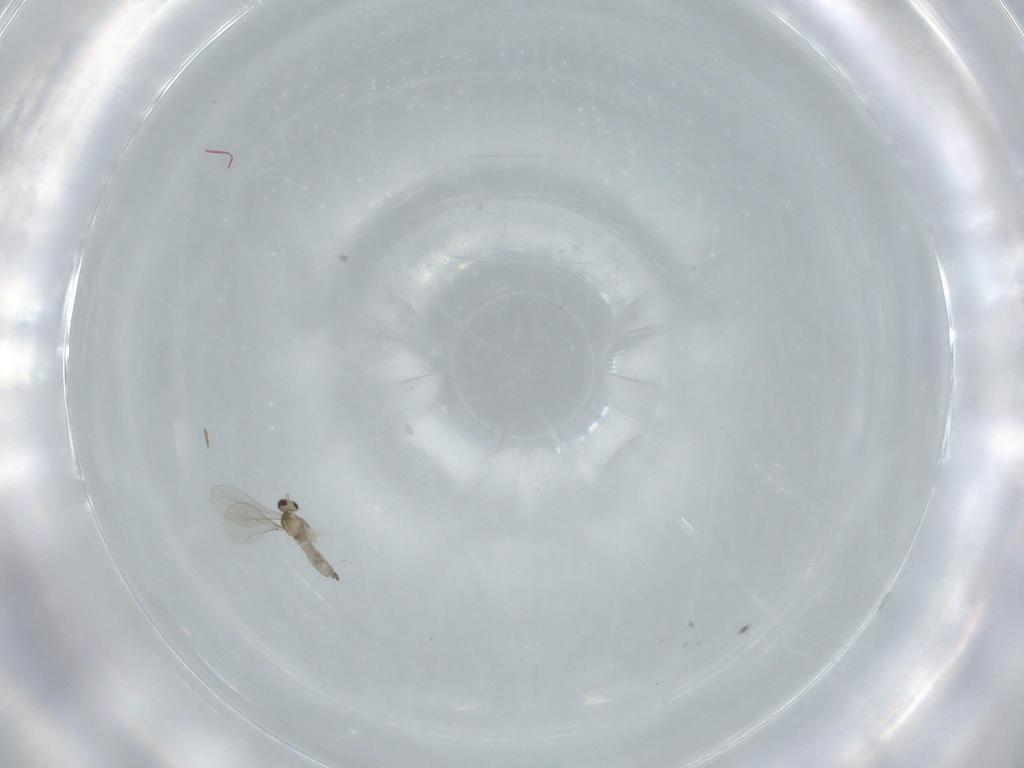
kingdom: Animalia
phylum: Arthropoda
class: Insecta
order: Diptera
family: Cecidomyiidae
